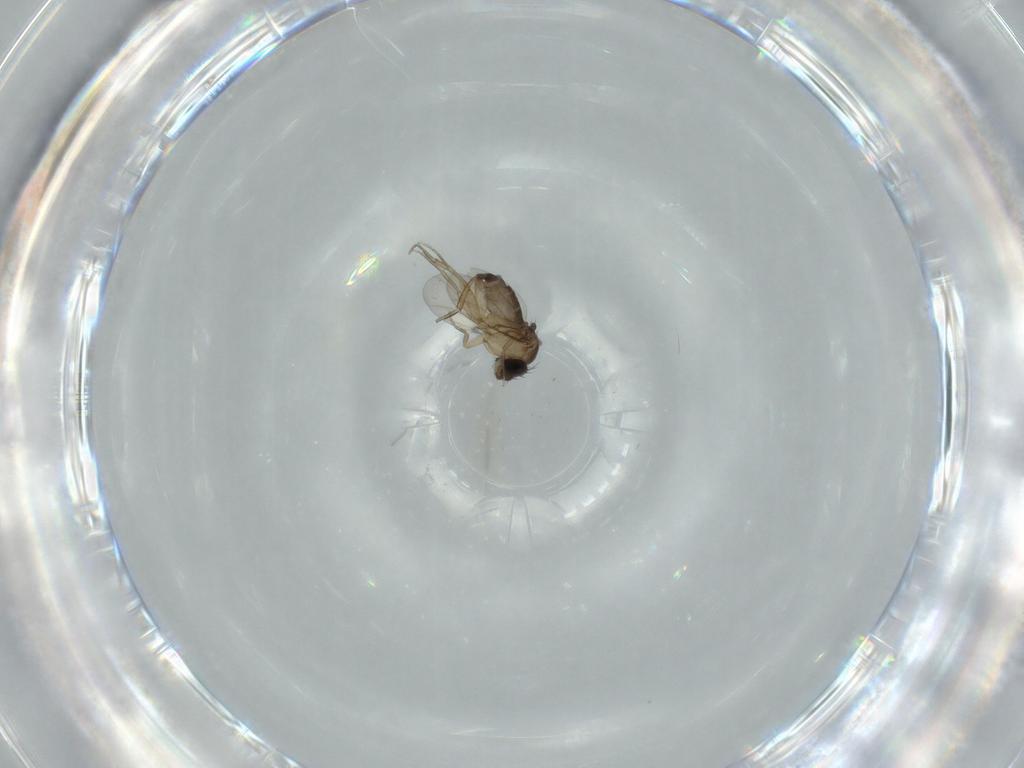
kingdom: Animalia
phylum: Arthropoda
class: Insecta
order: Diptera
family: Phoridae
